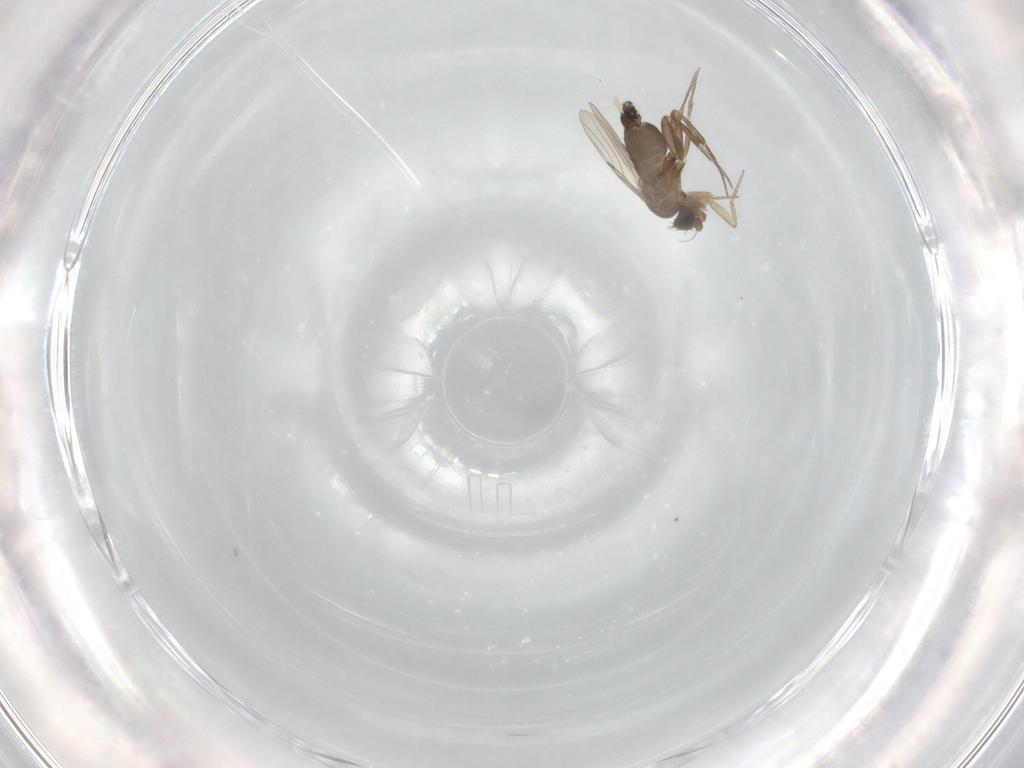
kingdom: Animalia
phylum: Arthropoda
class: Insecta
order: Diptera
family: Phoridae
